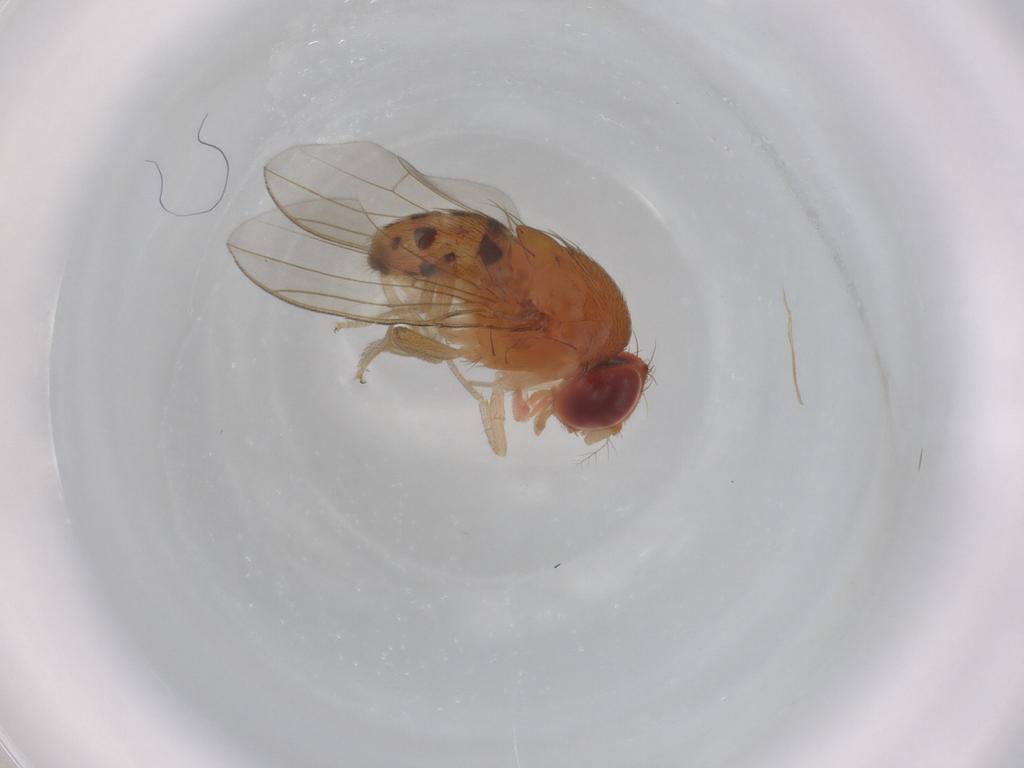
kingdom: Animalia
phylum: Arthropoda
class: Insecta
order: Diptera
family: Drosophilidae
